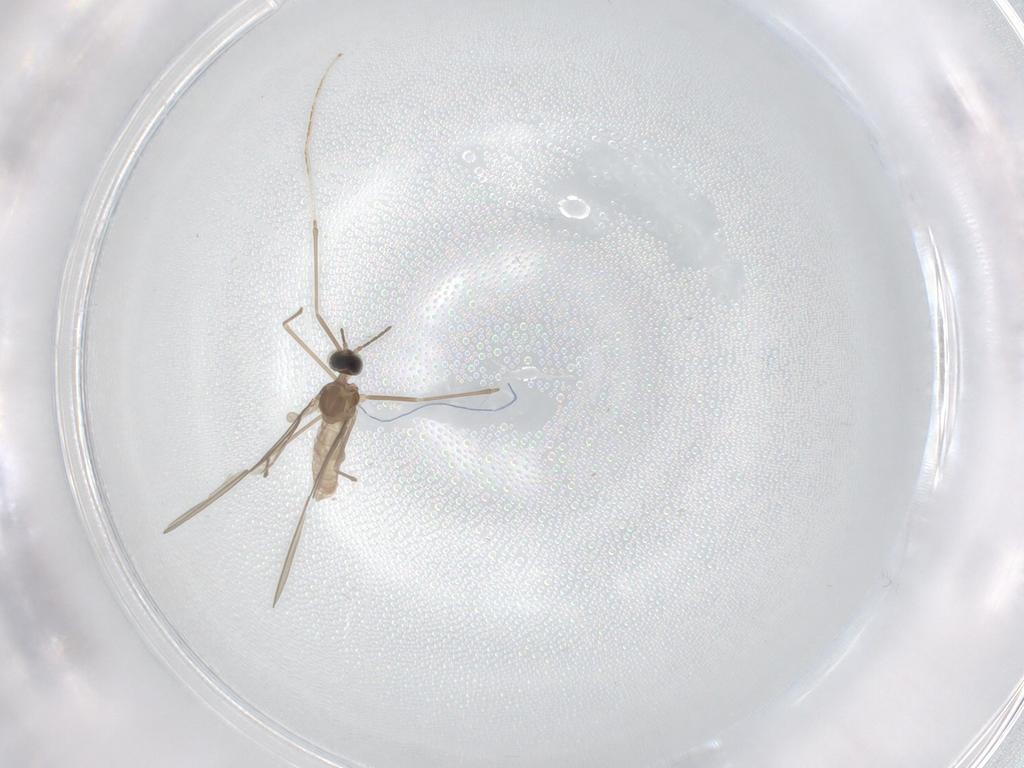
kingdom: Animalia
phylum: Arthropoda
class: Insecta
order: Diptera
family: Cecidomyiidae
